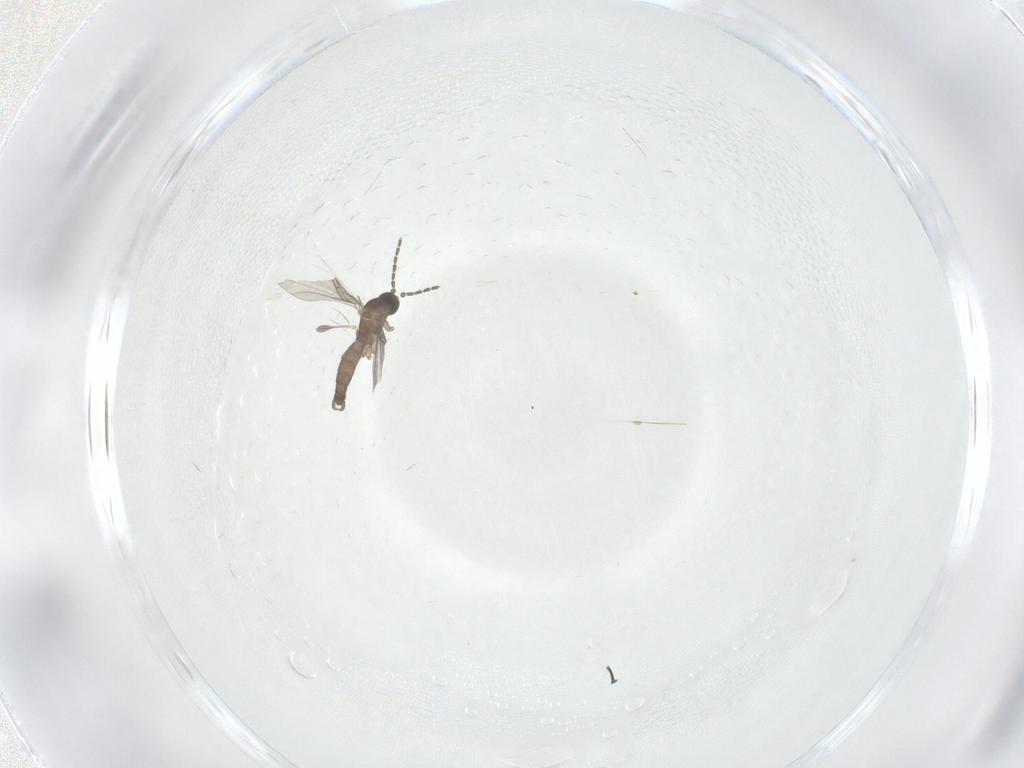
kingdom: Animalia
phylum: Arthropoda
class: Insecta
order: Diptera
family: Sciaridae
